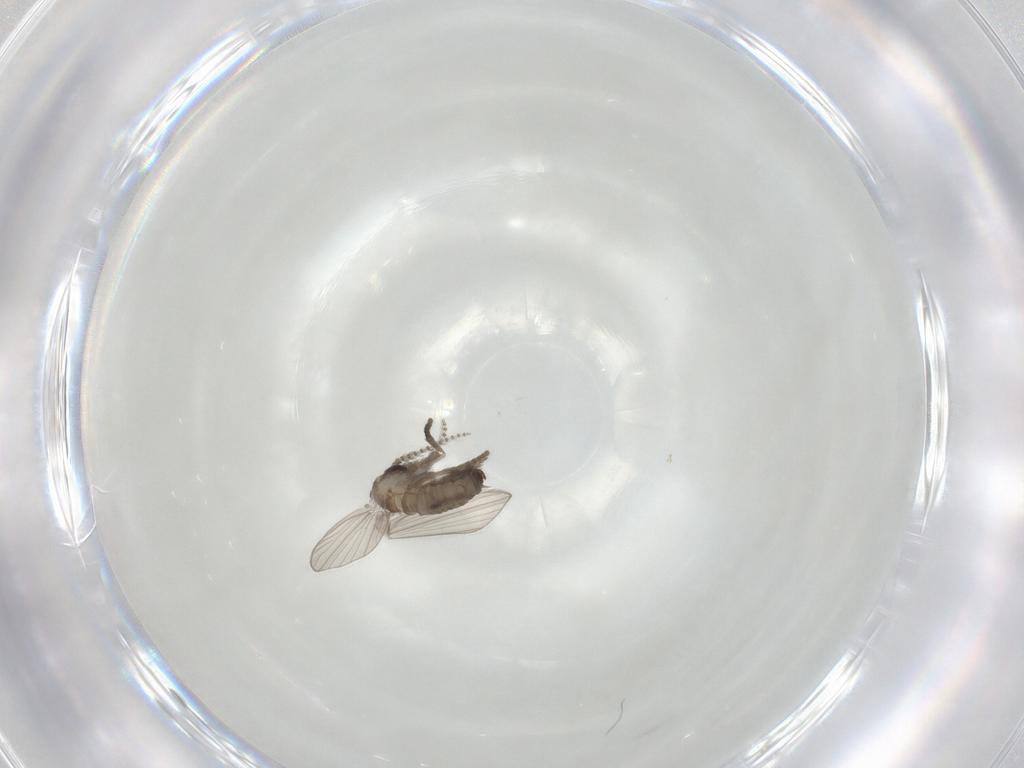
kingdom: Animalia
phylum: Arthropoda
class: Insecta
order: Diptera
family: Psychodidae
